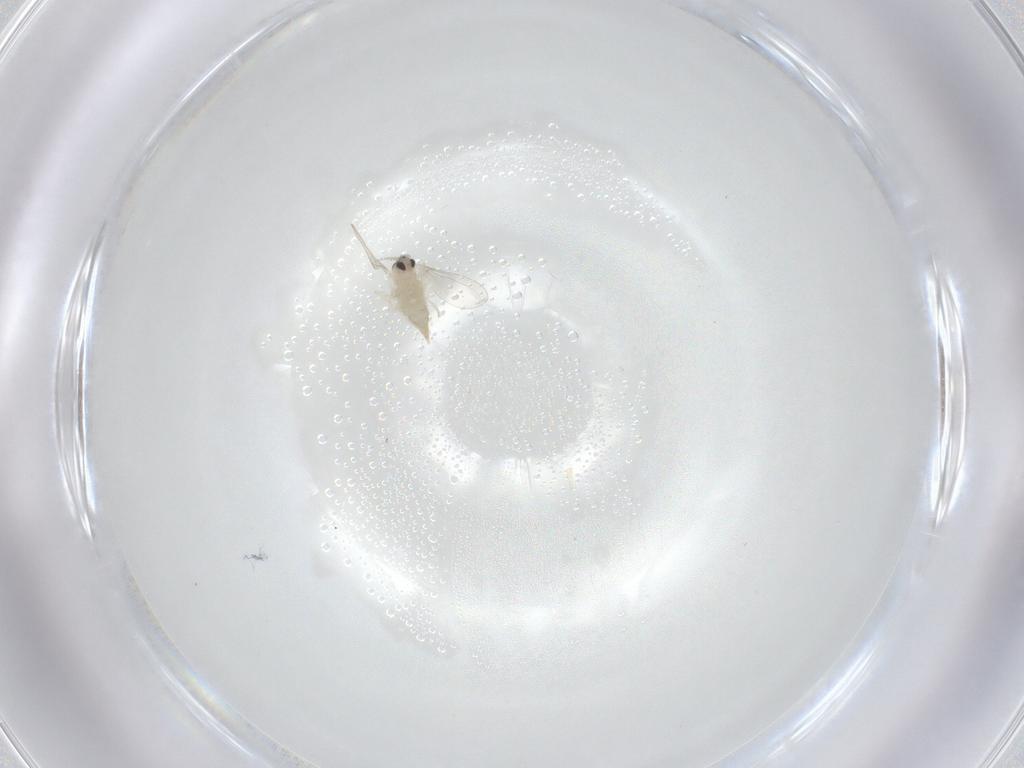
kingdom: Animalia
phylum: Arthropoda
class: Insecta
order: Diptera
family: Cecidomyiidae
